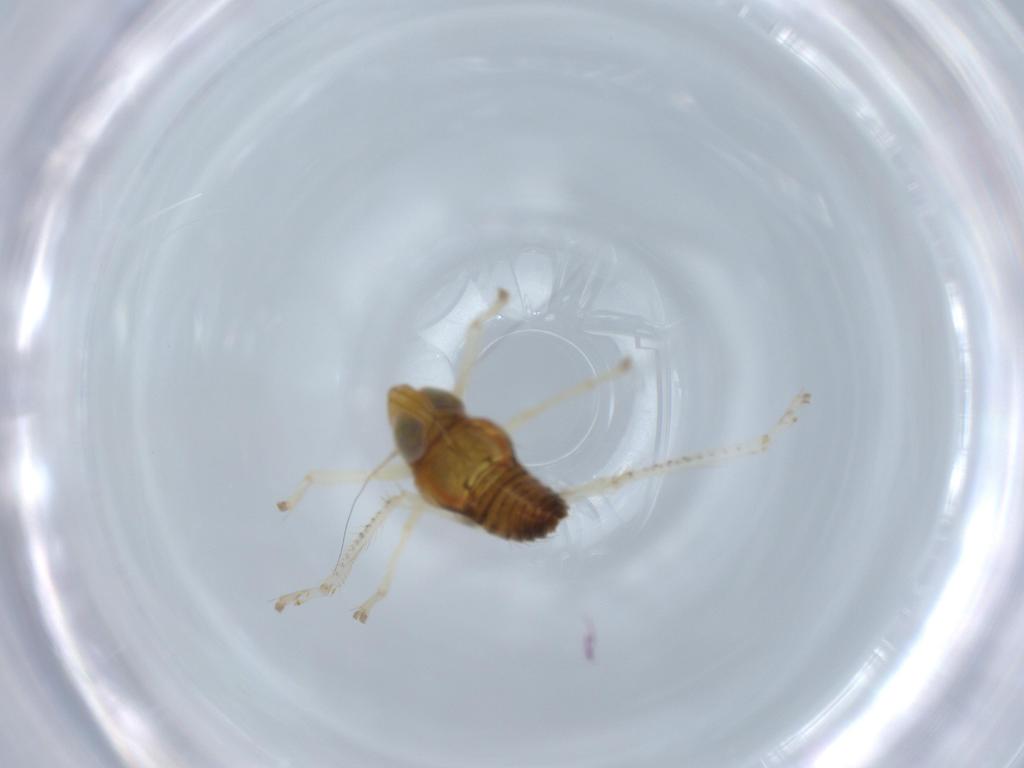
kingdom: Animalia
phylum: Arthropoda
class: Insecta
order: Hemiptera
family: Cicadellidae
